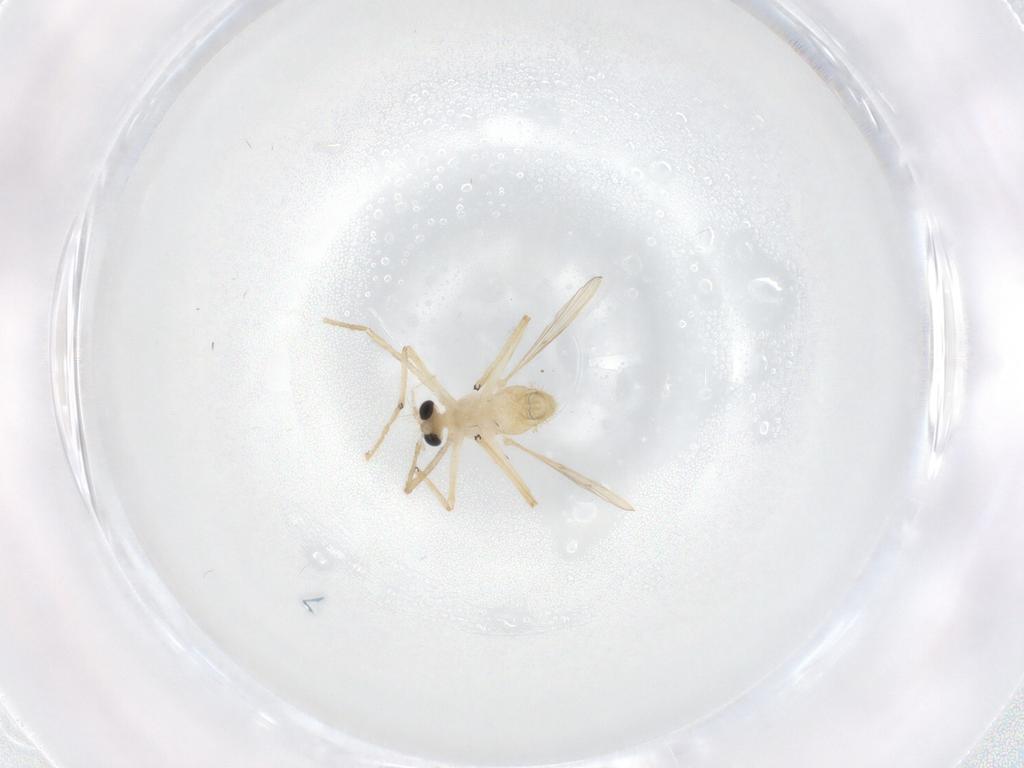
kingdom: Animalia
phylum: Arthropoda
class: Insecta
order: Diptera
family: Chironomidae
